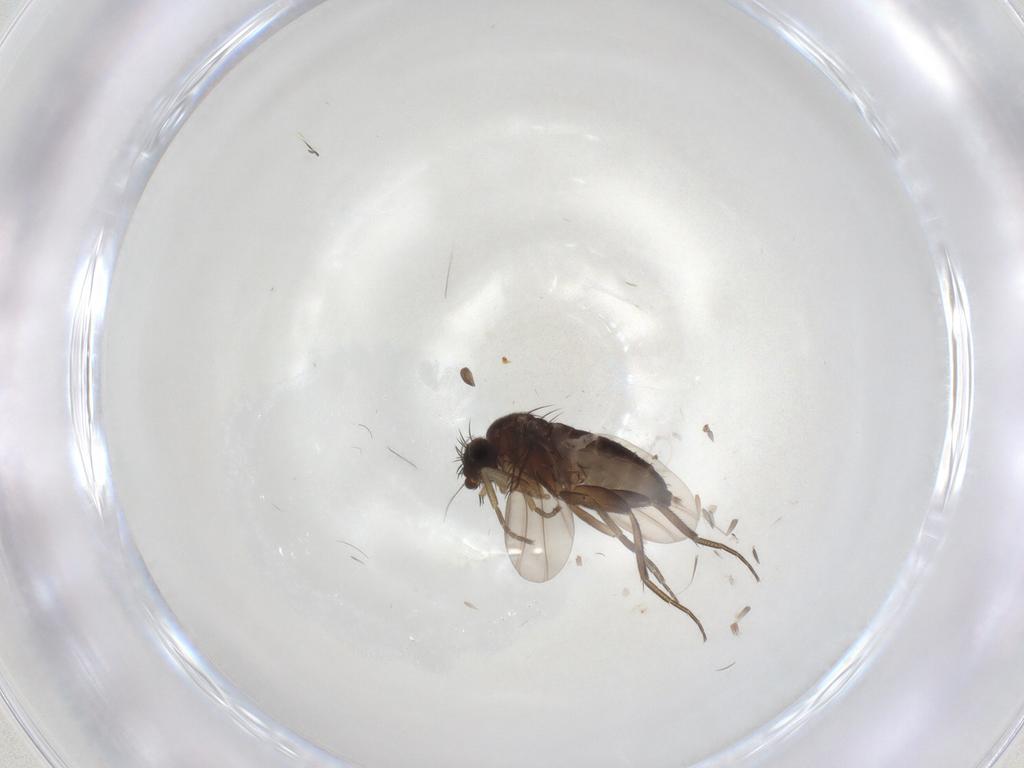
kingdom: Animalia
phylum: Arthropoda
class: Insecta
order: Diptera
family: Phoridae
